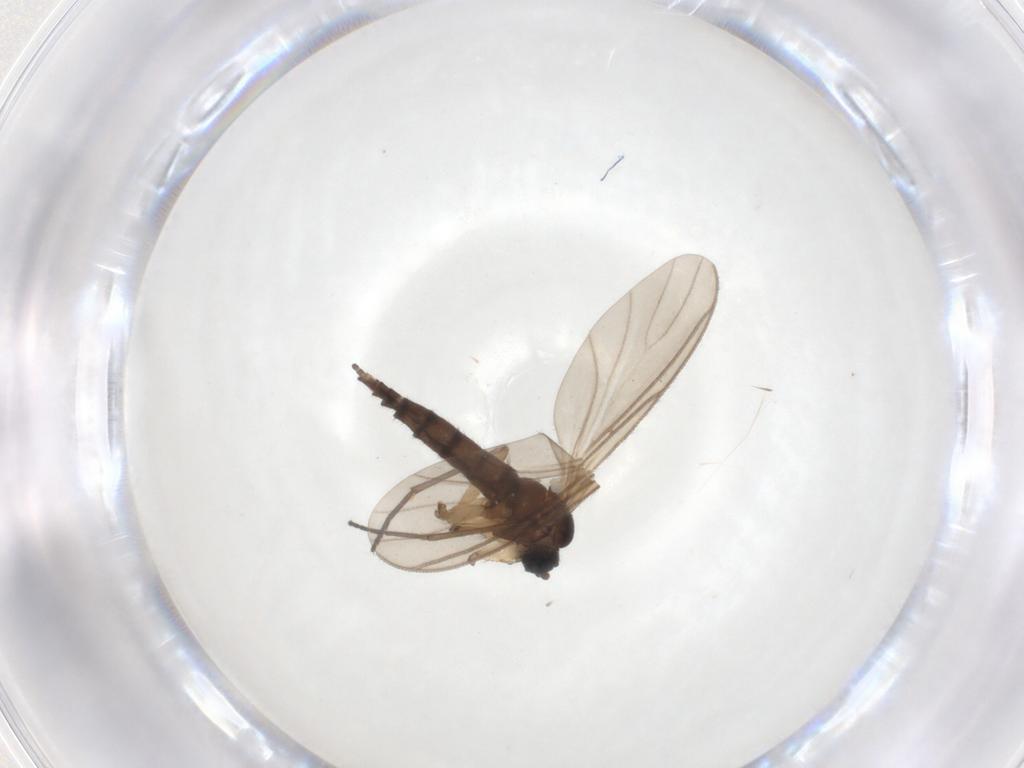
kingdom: Animalia
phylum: Arthropoda
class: Insecta
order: Diptera
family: Sciaridae
